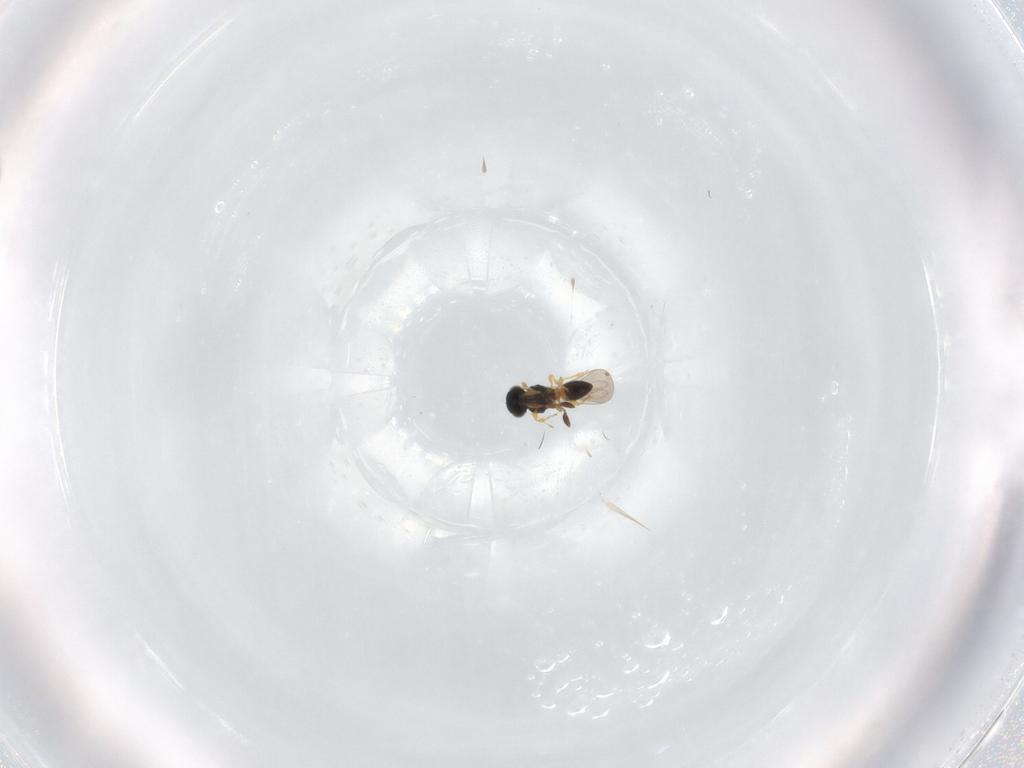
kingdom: Animalia
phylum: Arthropoda
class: Insecta
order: Hymenoptera
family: Platygastridae
